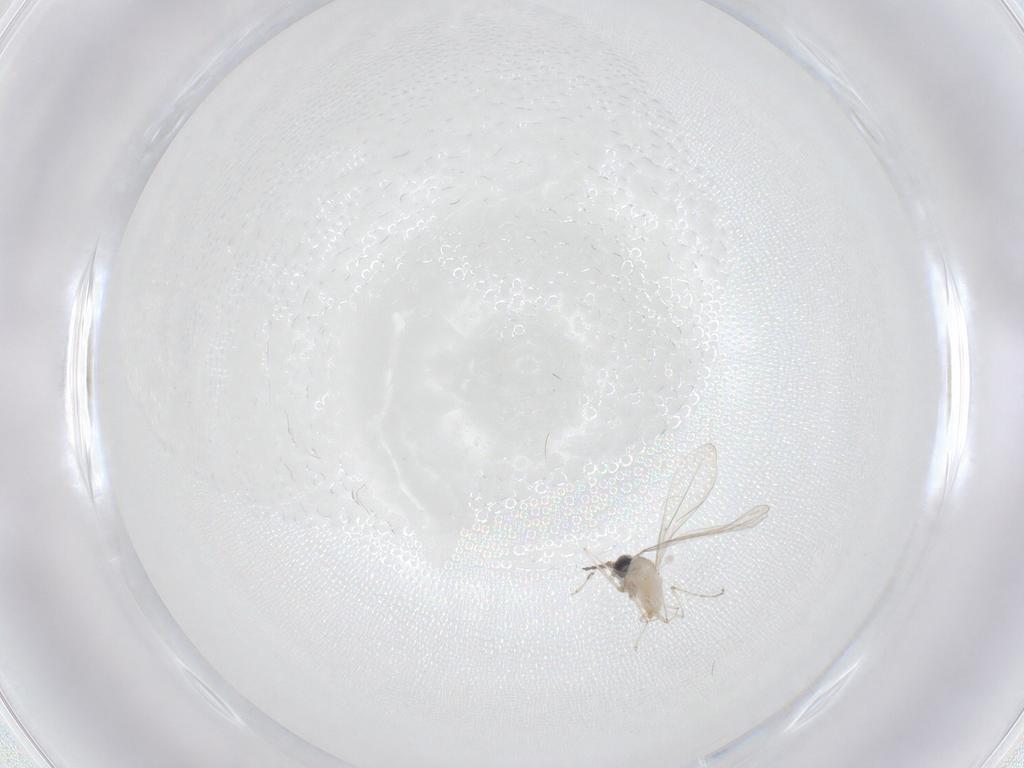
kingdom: Animalia
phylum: Arthropoda
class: Insecta
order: Diptera
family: Cecidomyiidae
